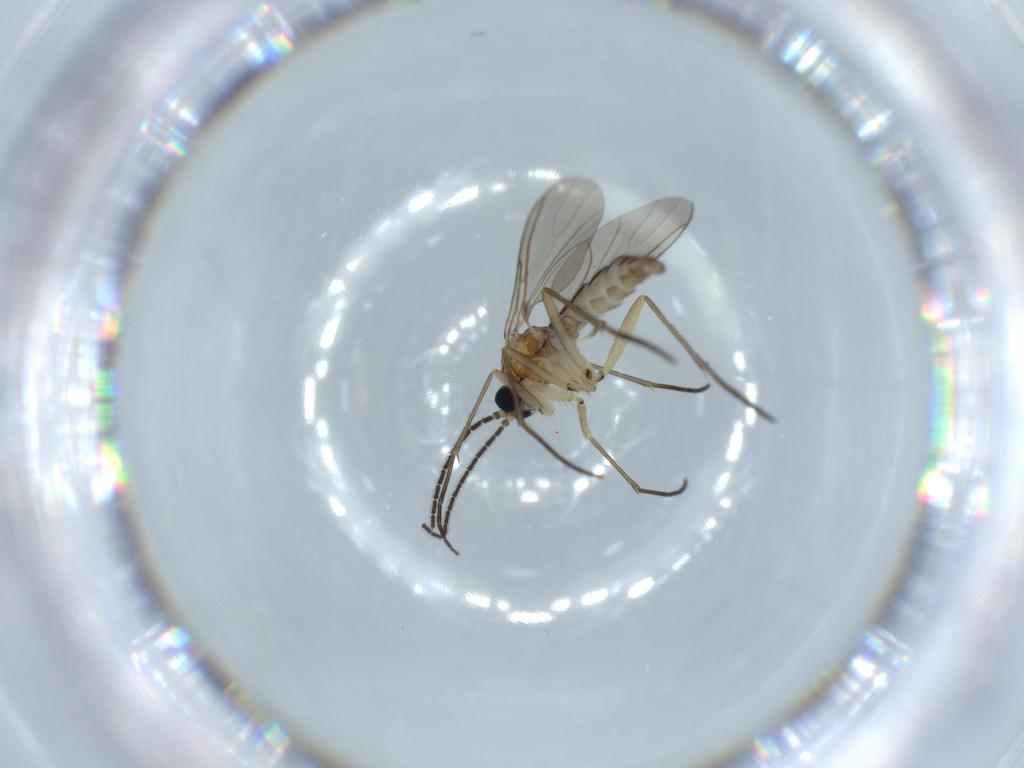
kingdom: Animalia
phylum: Arthropoda
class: Insecta
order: Diptera
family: Sciaridae
